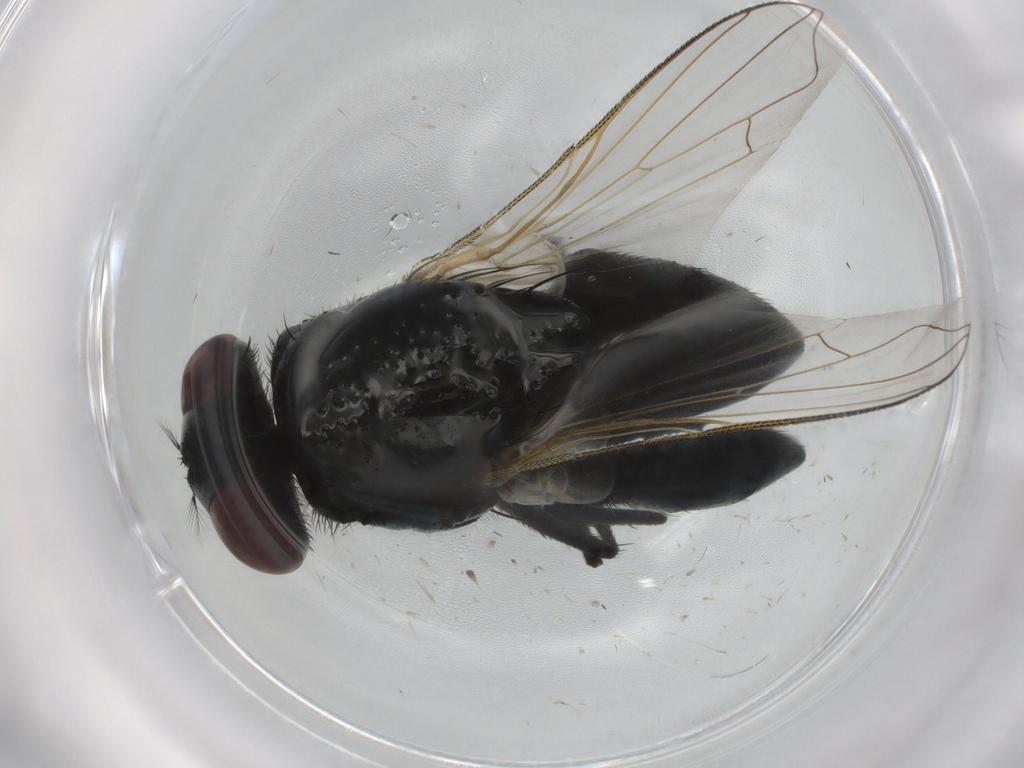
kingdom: Animalia
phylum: Arthropoda
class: Insecta
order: Diptera
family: Muscidae
